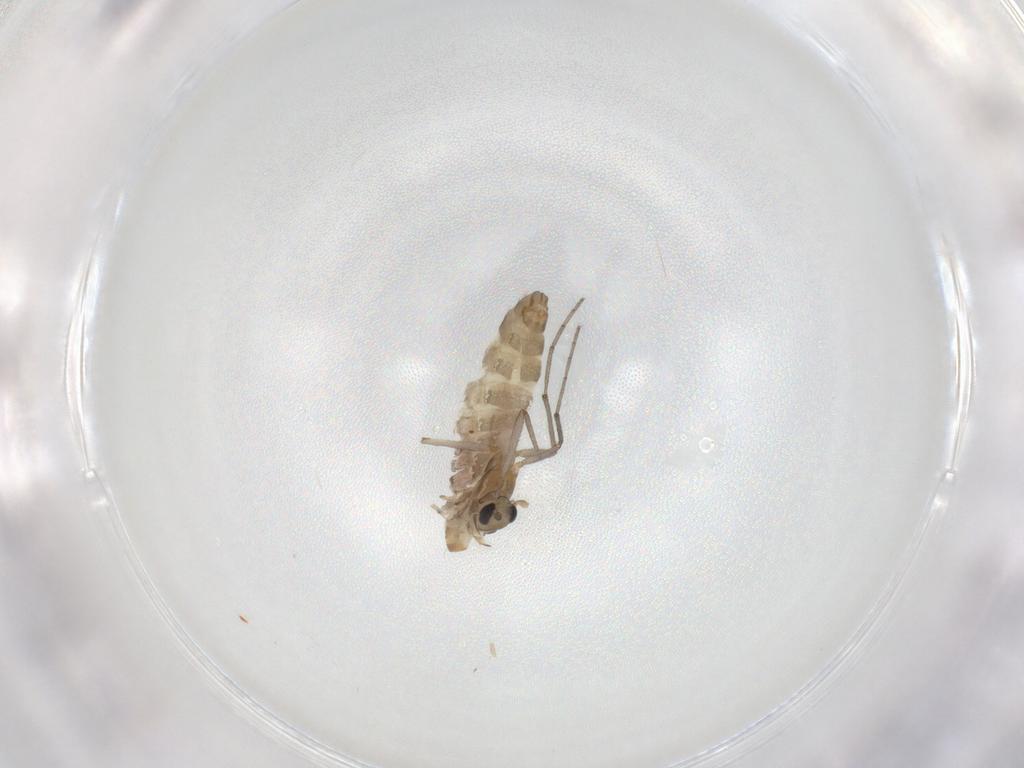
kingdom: Animalia
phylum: Arthropoda
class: Insecta
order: Diptera
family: Chironomidae
